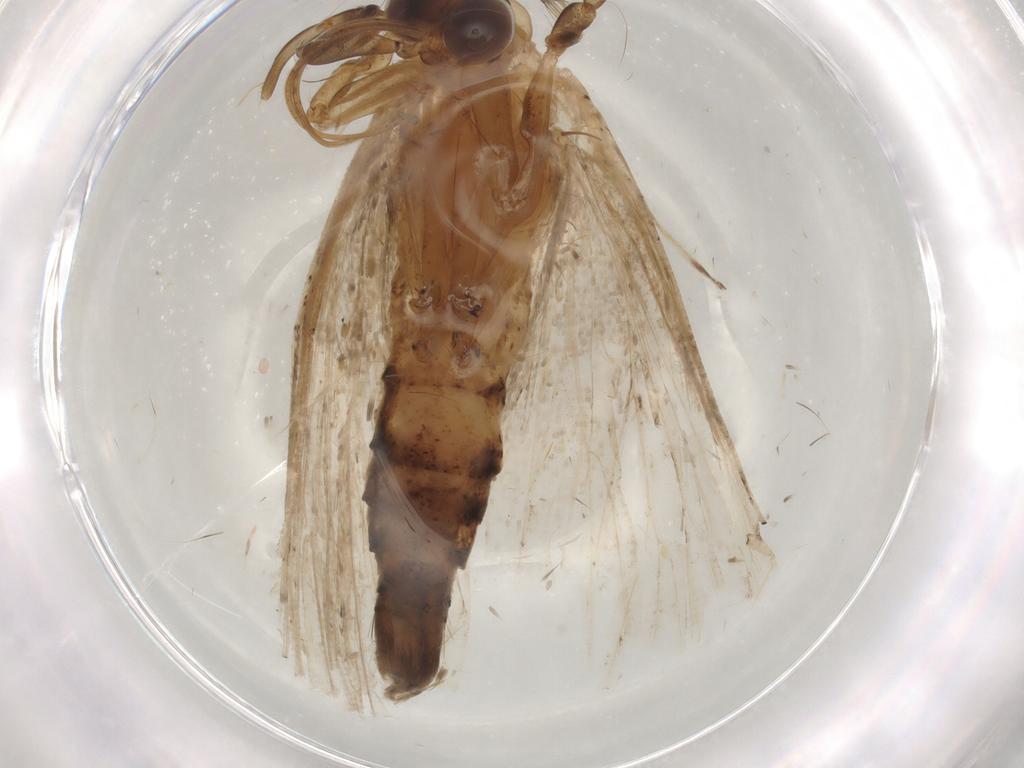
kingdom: Animalia
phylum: Arthropoda
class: Insecta
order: Lepidoptera
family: Erebidae
